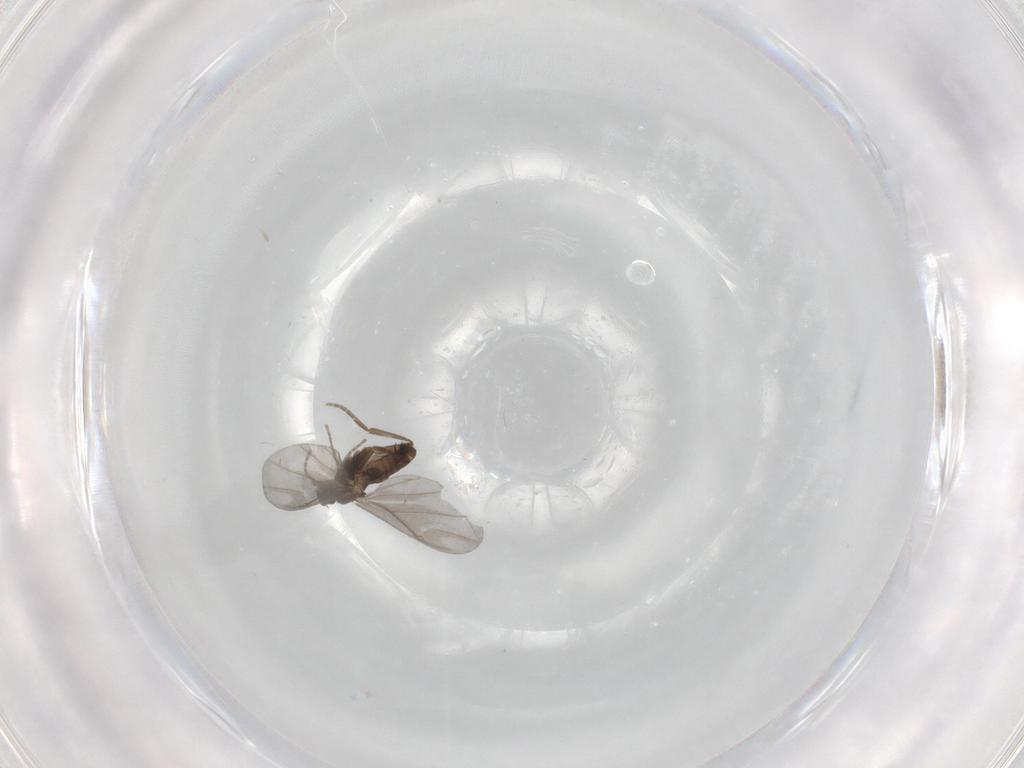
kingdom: Animalia
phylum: Arthropoda
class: Insecta
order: Diptera
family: Phoridae
